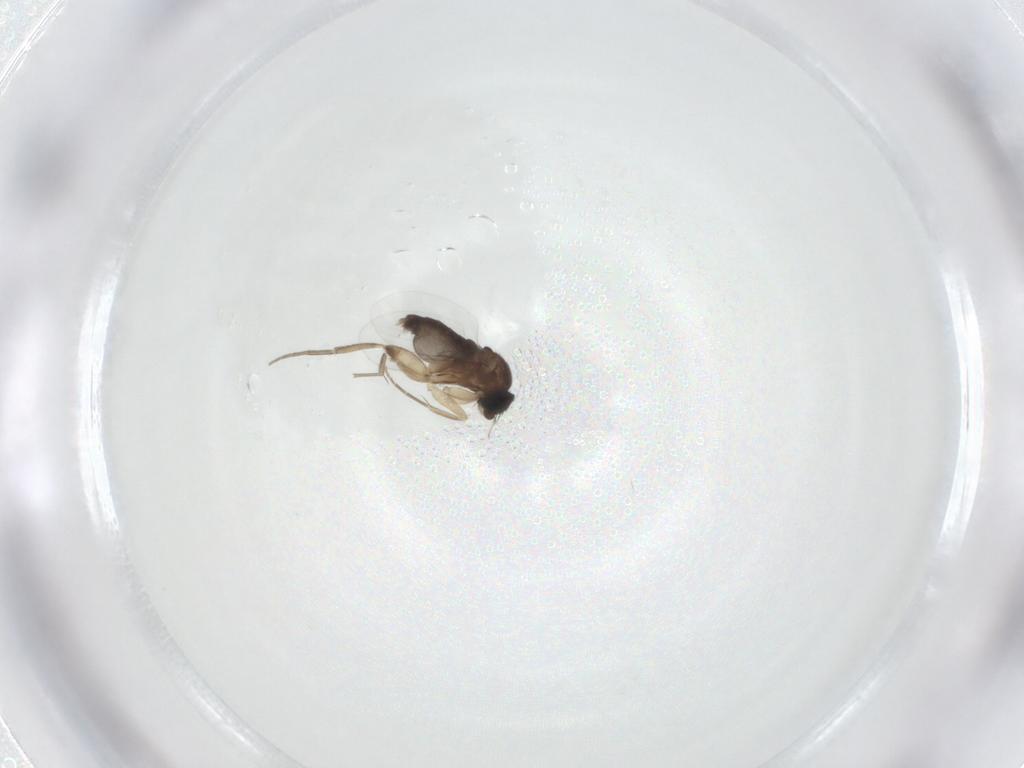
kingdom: Animalia
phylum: Arthropoda
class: Insecta
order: Diptera
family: Phoridae
